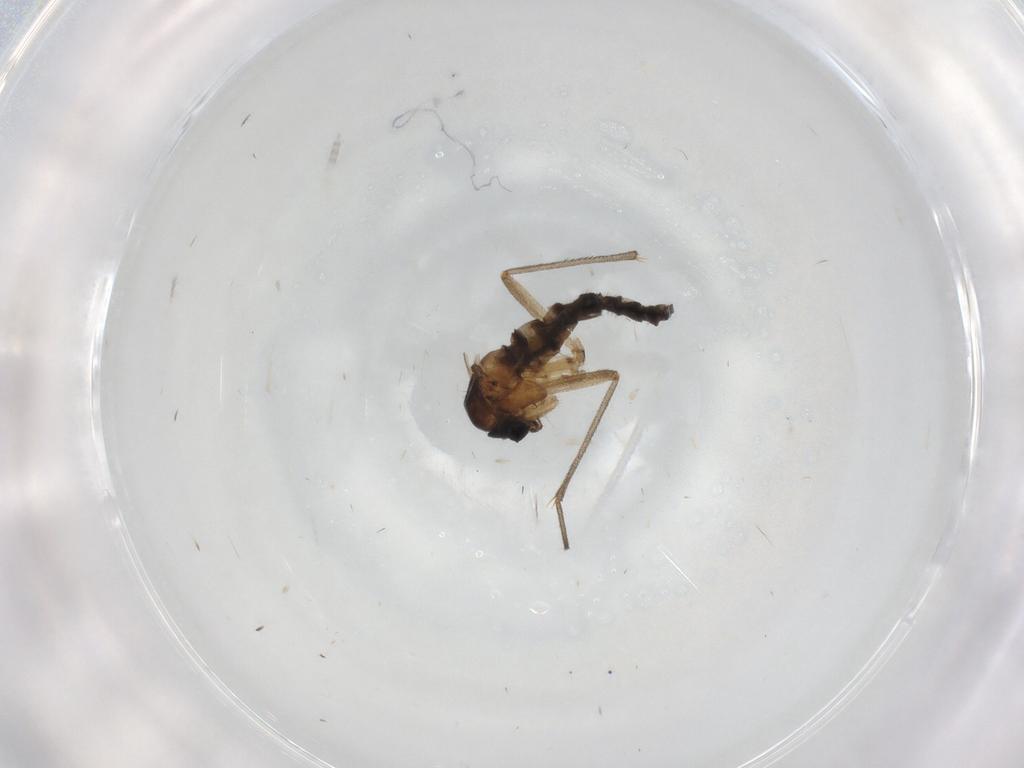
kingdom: Animalia
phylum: Arthropoda
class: Insecta
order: Diptera
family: Sciaridae
